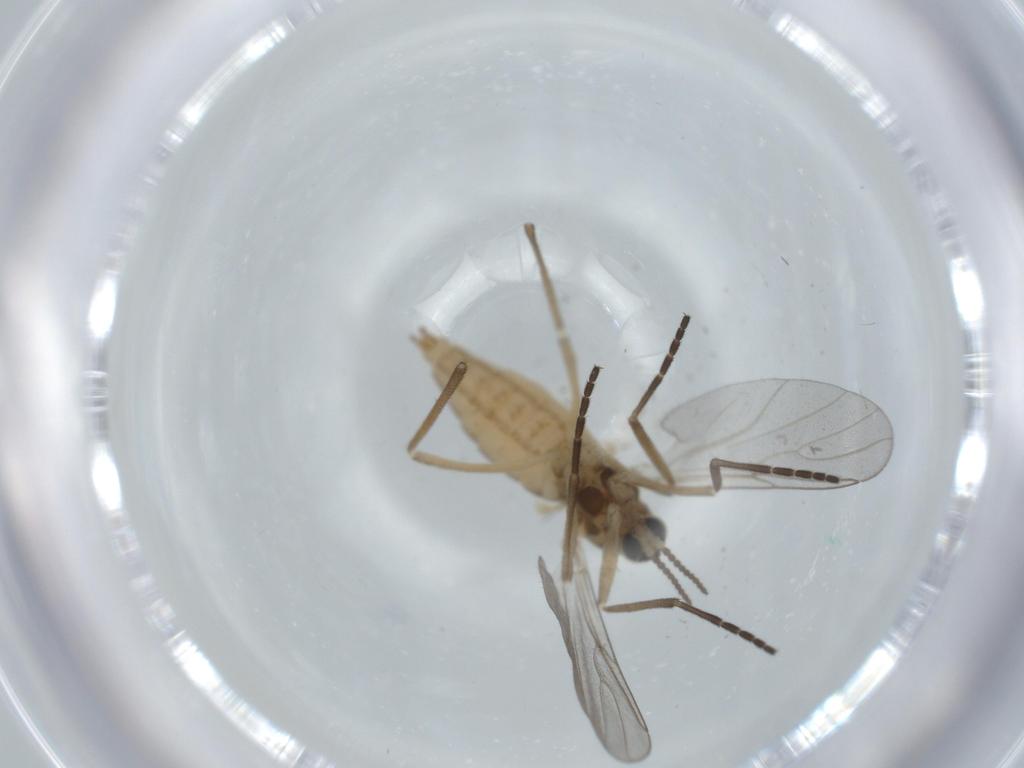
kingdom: Animalia
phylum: Arthropoda
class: Insecta
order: Diptera
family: Cecidomyiidae
